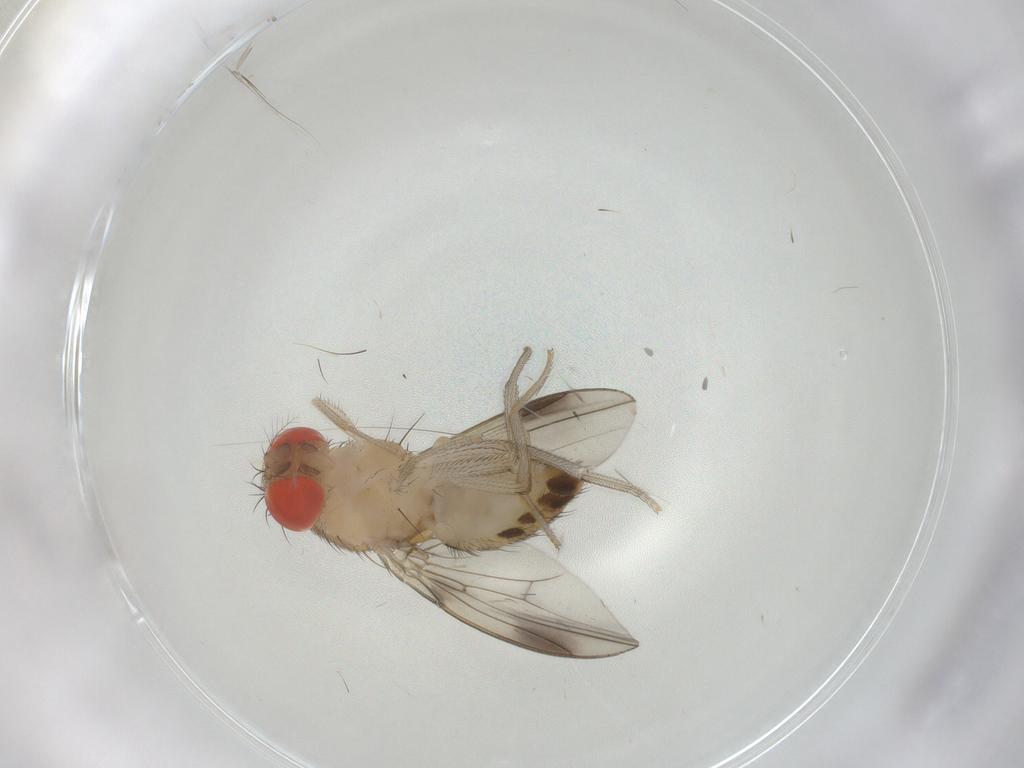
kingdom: Animalia
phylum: Arthropoda
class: Insecta
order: Diptera
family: Drosophilidae
